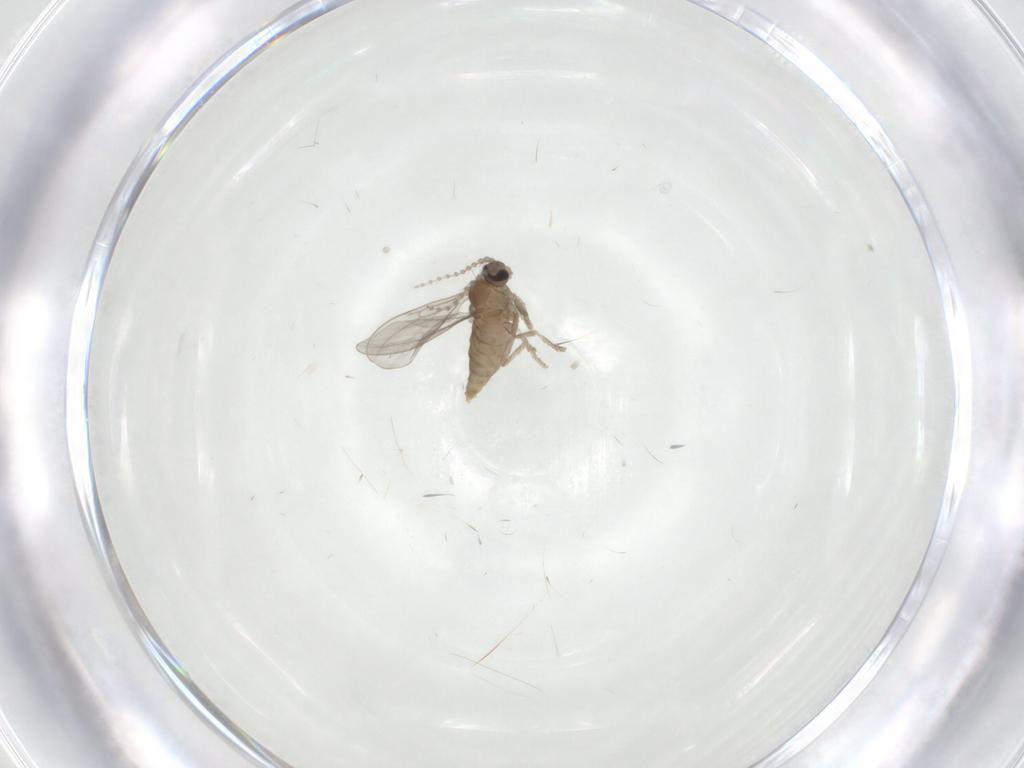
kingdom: Animalia
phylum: Arthropoda
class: Insecta
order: Diptera
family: Cecidomyiidae
